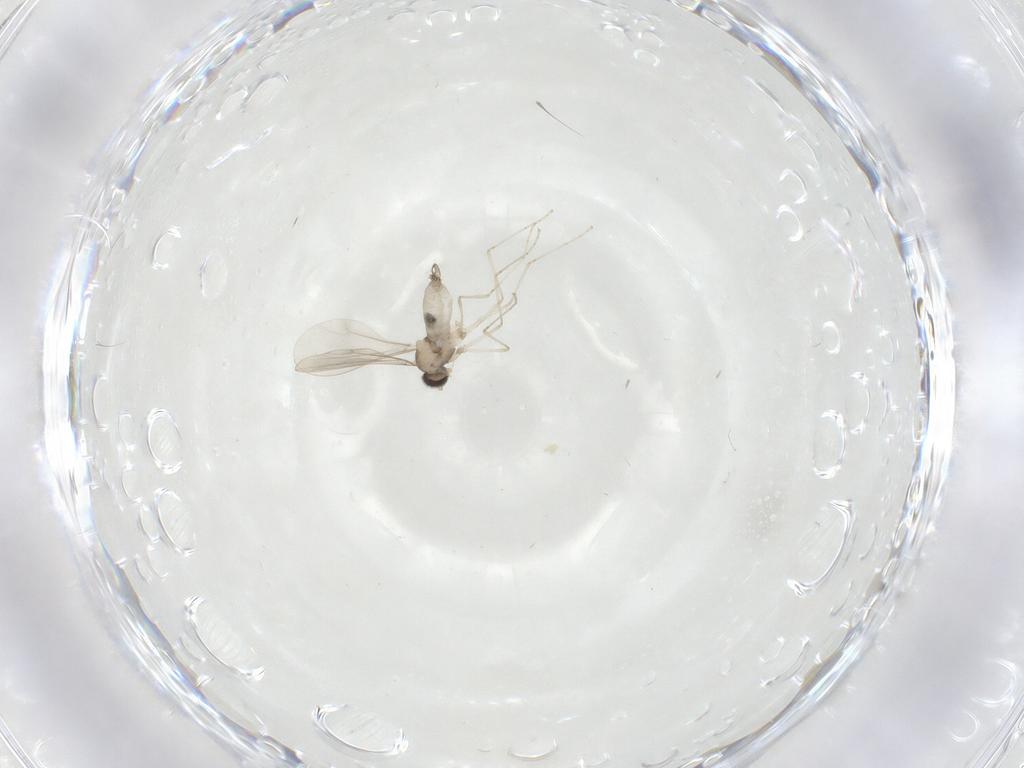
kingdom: Animalia
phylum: Arthropoda
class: Insecta
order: Diptera
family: Cecidomyiidae
